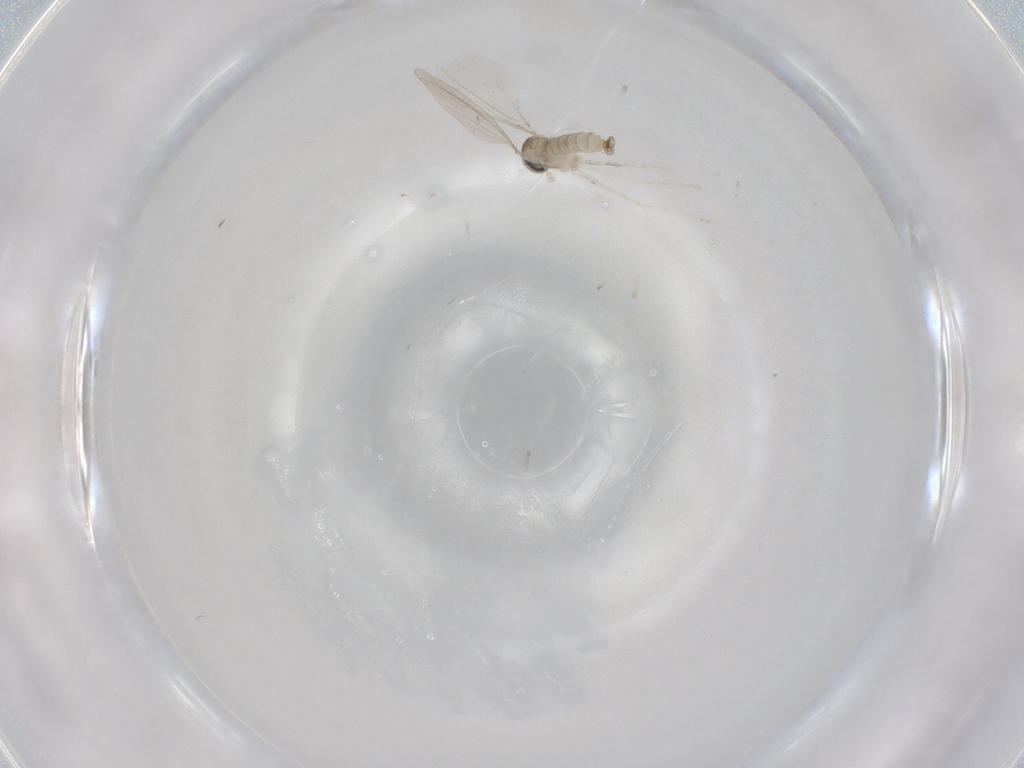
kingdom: Animalia
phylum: Arthropoda
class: Insecta
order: Diptera
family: Cecidomyiidae
